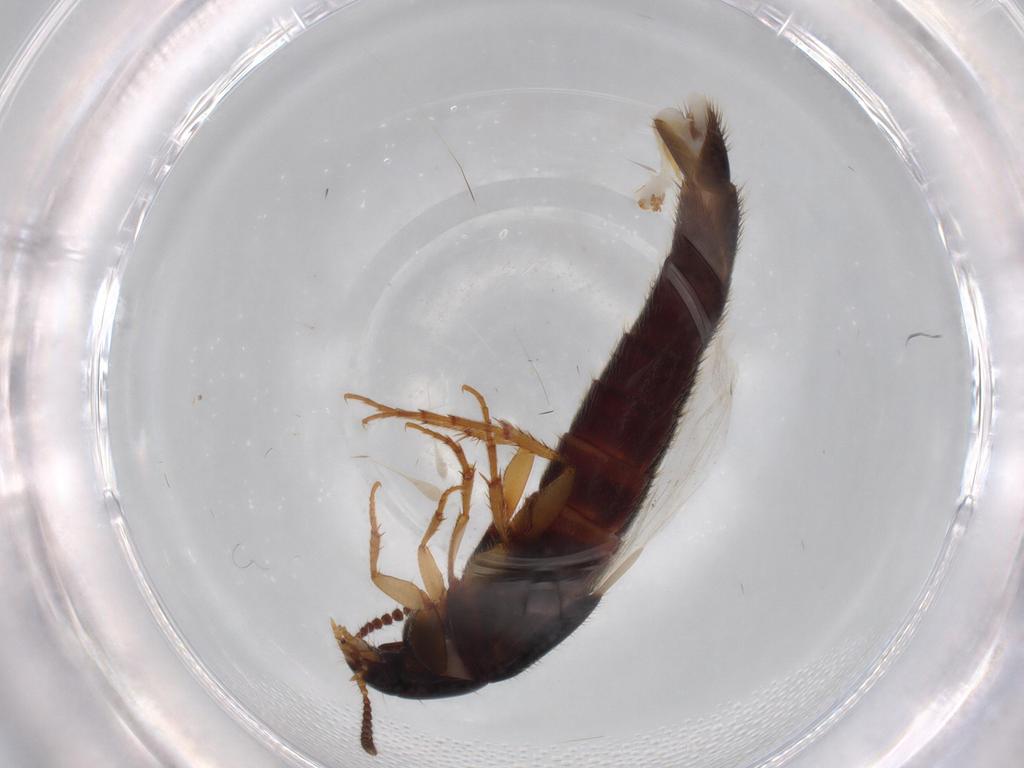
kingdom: Animalia
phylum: Arthropoda
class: Insecta
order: Coleoptera
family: Staphylinidae
